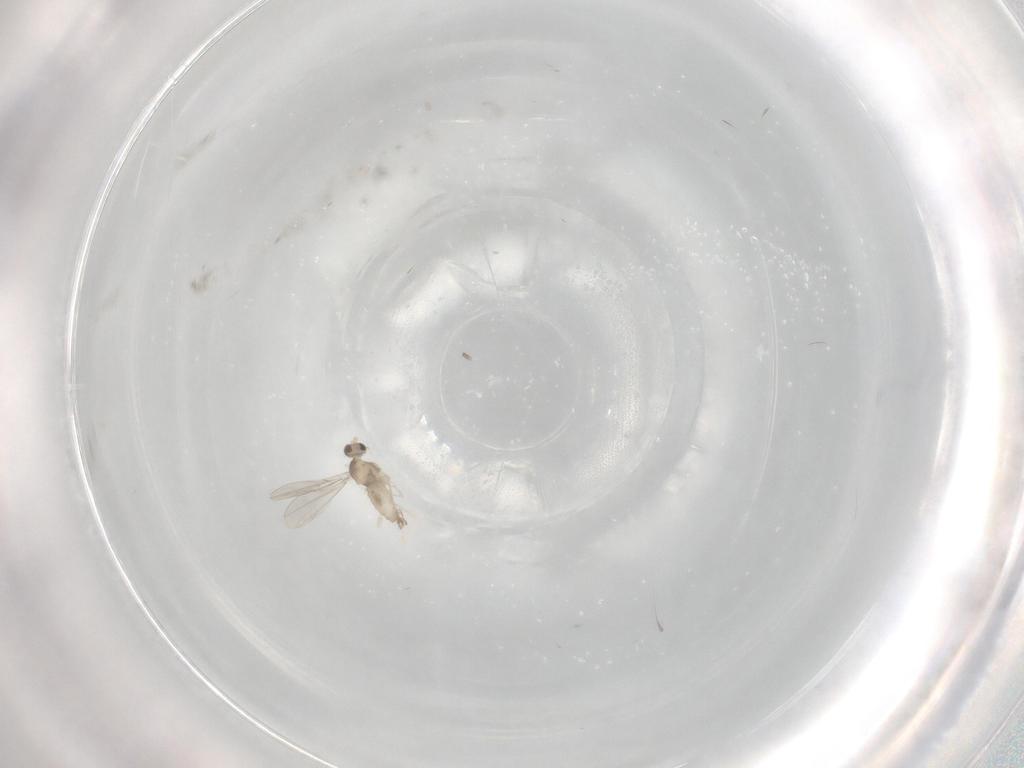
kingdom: Animalia
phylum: Arthropoda
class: Insecta
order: Diptera
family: Cecidomyiidae
